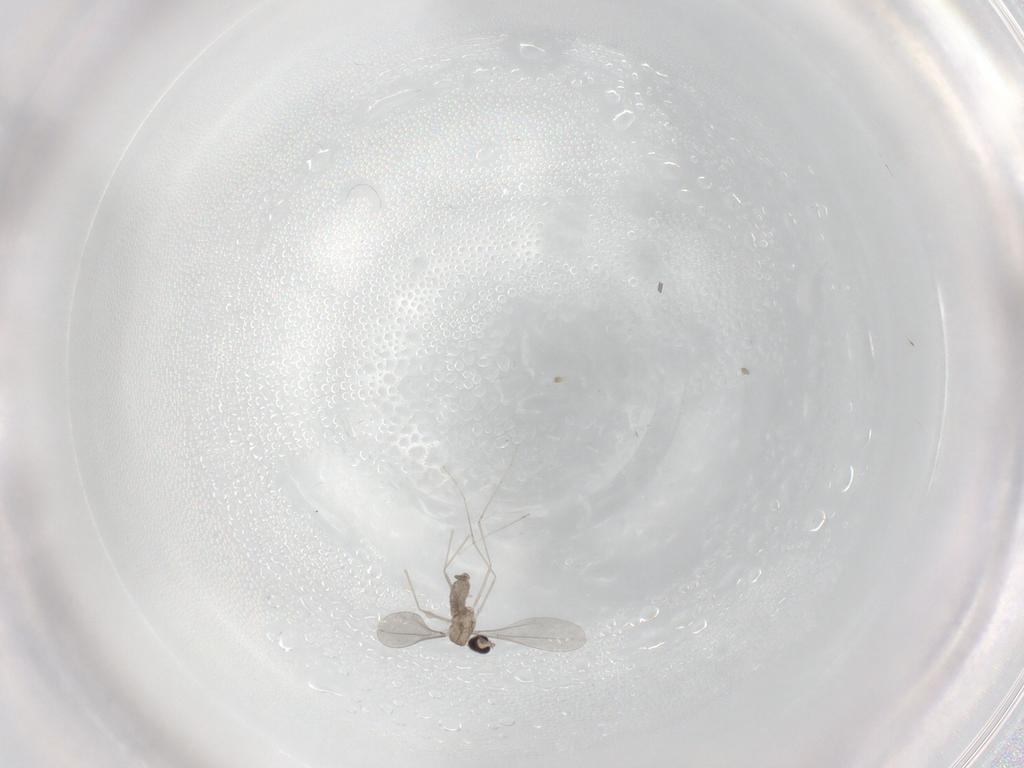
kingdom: Animalia
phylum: Arthropoda
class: Insecta
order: Diptera
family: Cecidomyiidae
